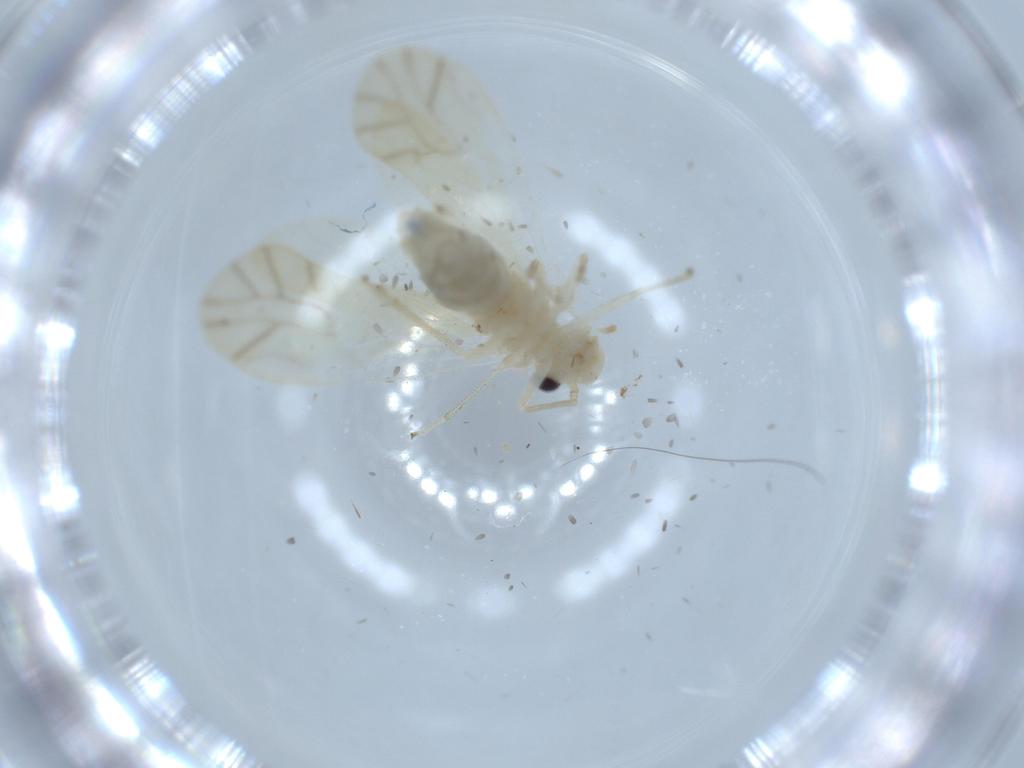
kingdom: Animalia
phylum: Arthropoda
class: Insecta
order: Psocodea
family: Caeciliusidae
